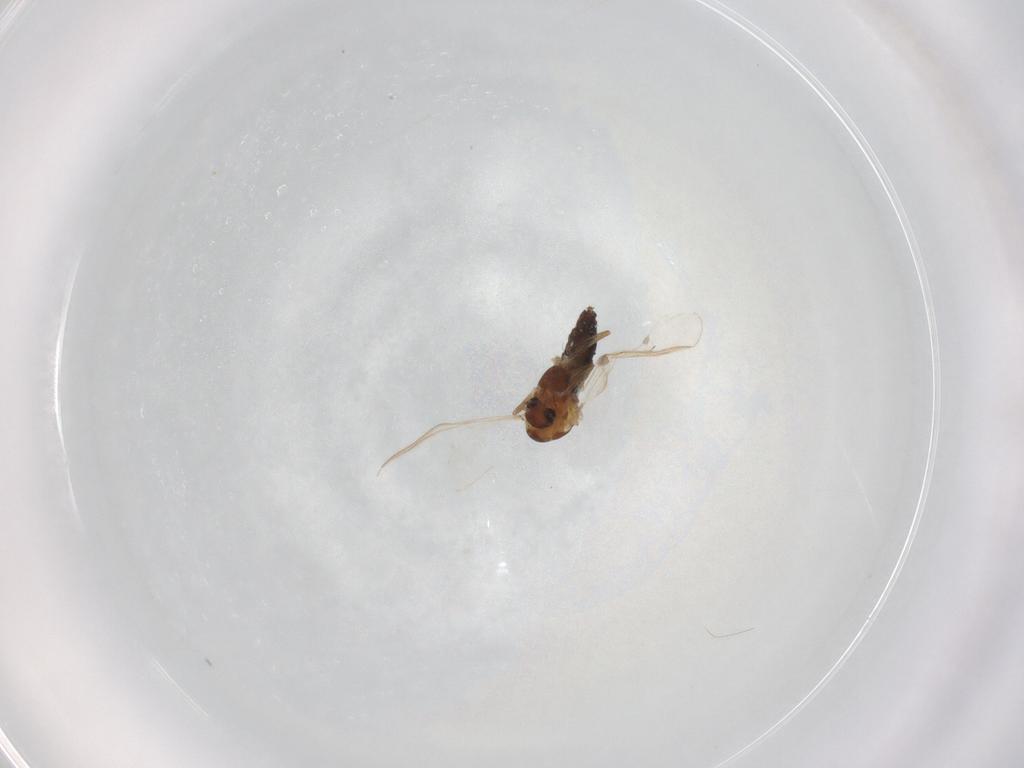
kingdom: Animalia
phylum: Arthropoda
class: Insecta
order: Diptera
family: Chironomidae
